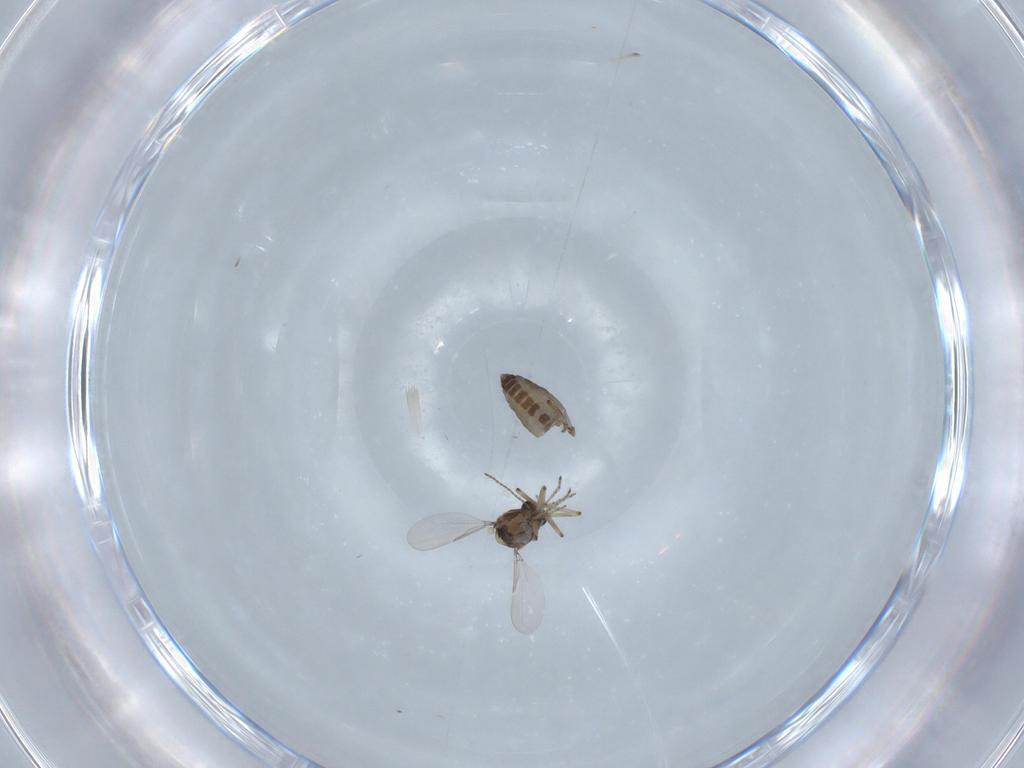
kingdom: Animalia
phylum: Arthropoda
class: Insecta
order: Diptera
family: Ceratopogonidae
